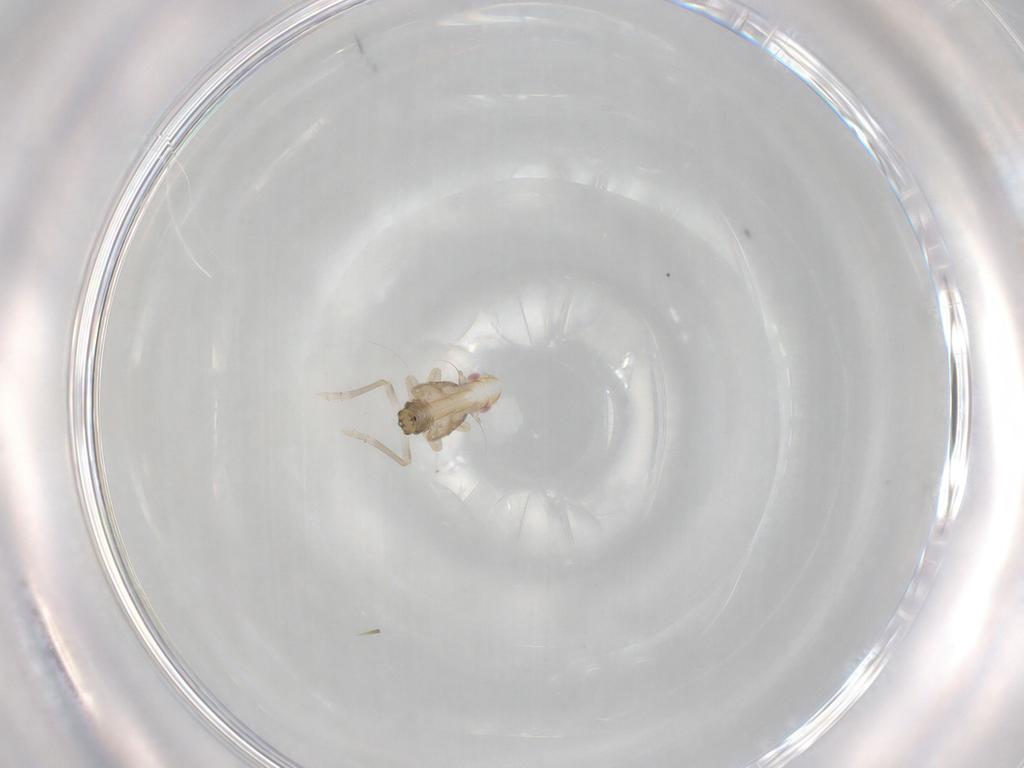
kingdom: Animalia
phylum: Arthropoda
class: Insecta
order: Hemiptera
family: Tropiduchidae
